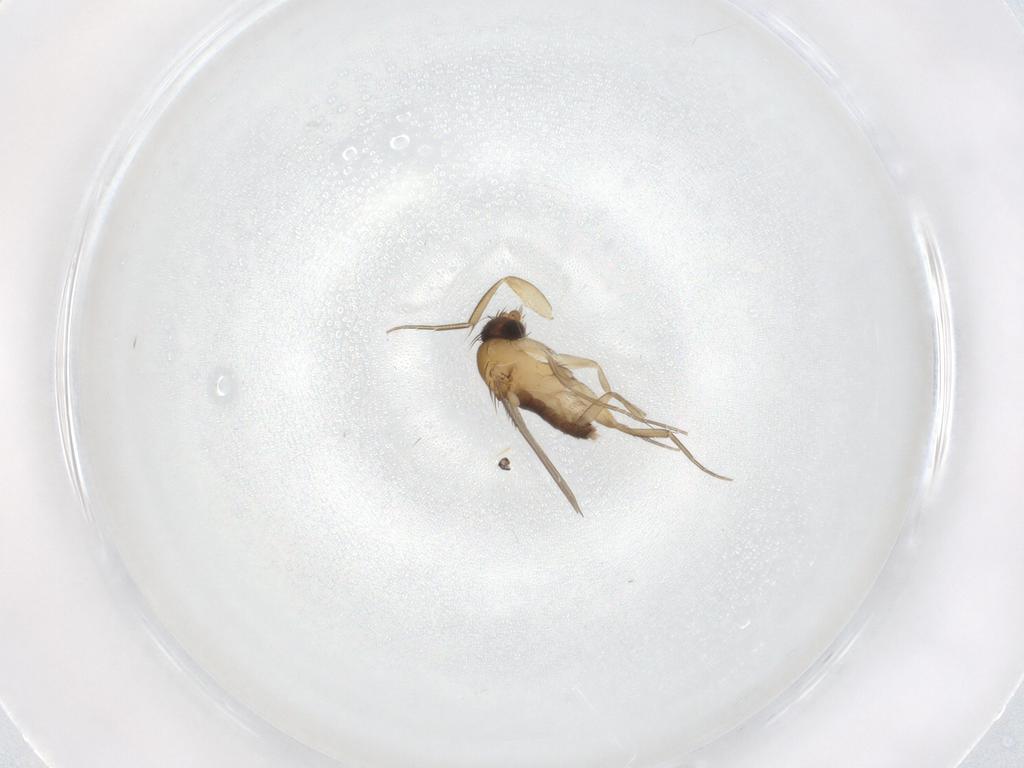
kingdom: Animalia
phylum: Arthropoda
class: Insecta
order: Diptera
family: Phoridae
